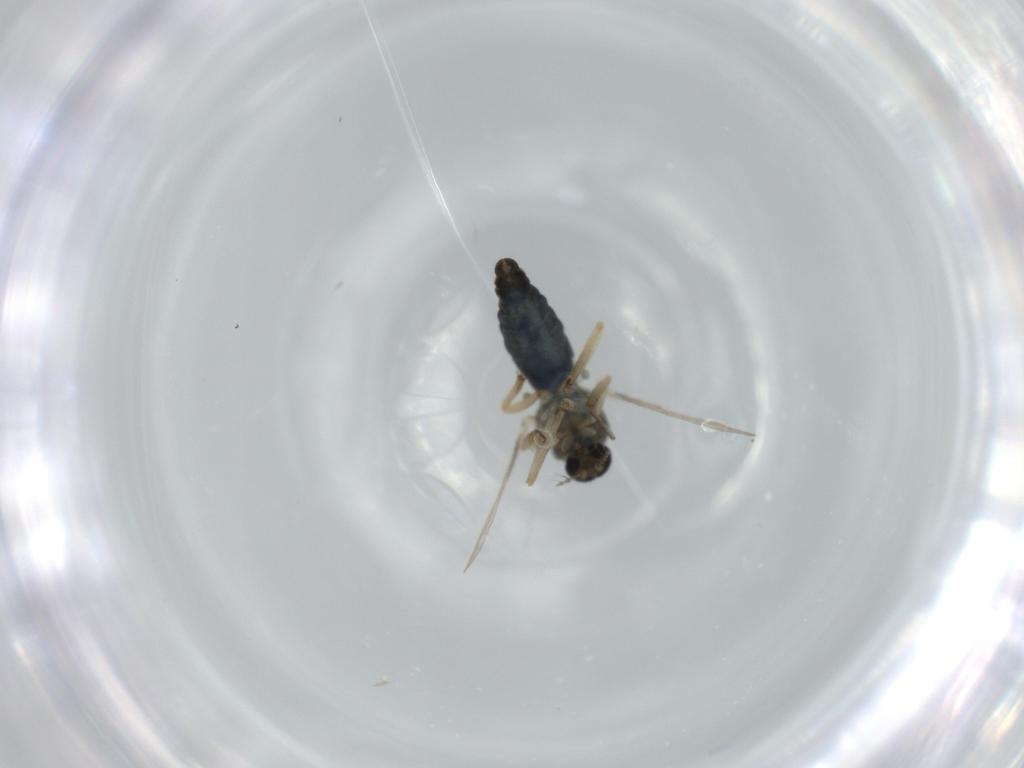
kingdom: Animalia
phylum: Arthropoda
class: Insecta
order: Diptera
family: Ceratopogonidae
